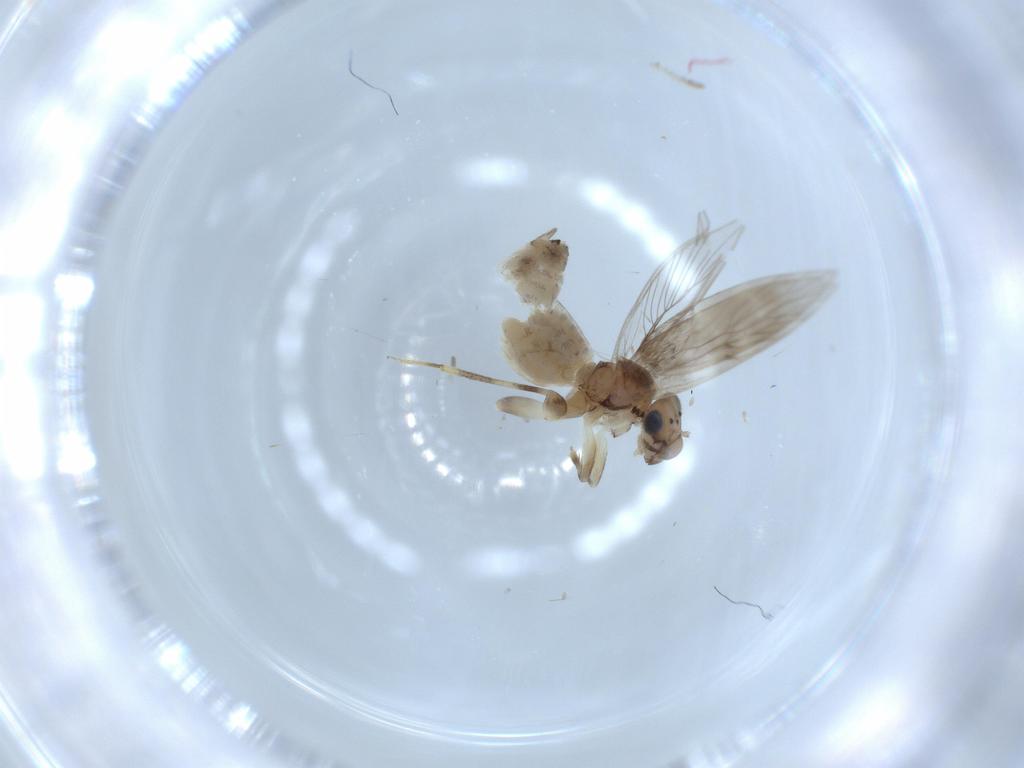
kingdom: Animalia
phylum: Arthropoda
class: Insecta
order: Psocodea
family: Lepidopsocidae
